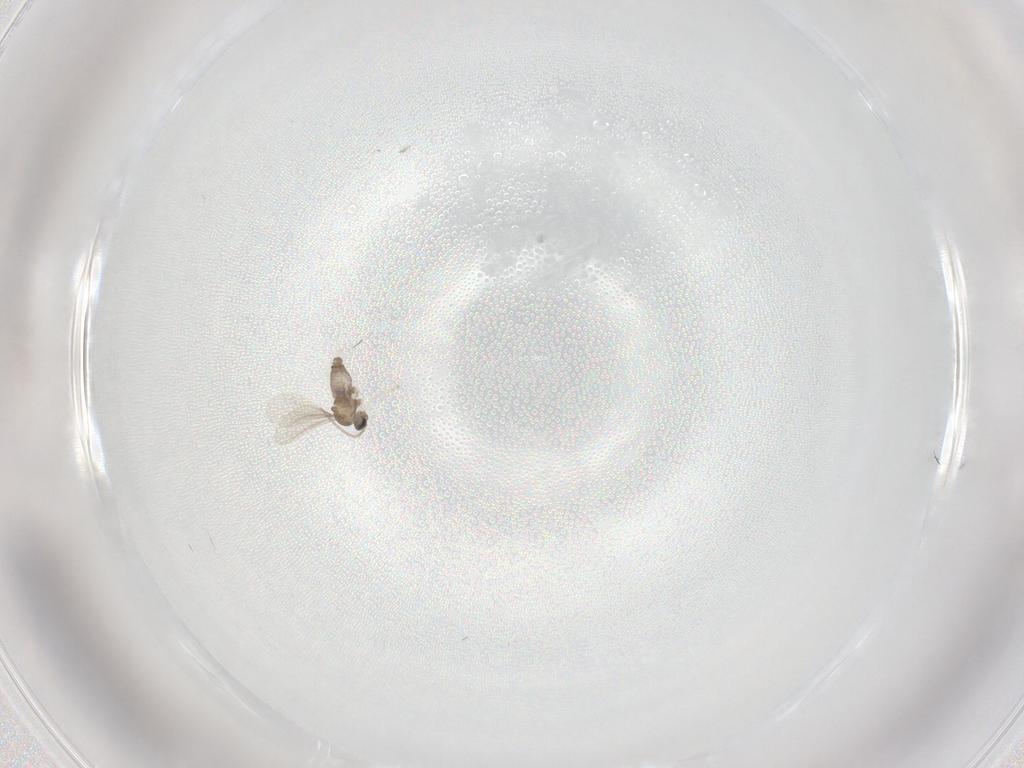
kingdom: Animalia
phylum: Arthropoda
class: Insecta
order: Diptera
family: Cecidomyiidae
